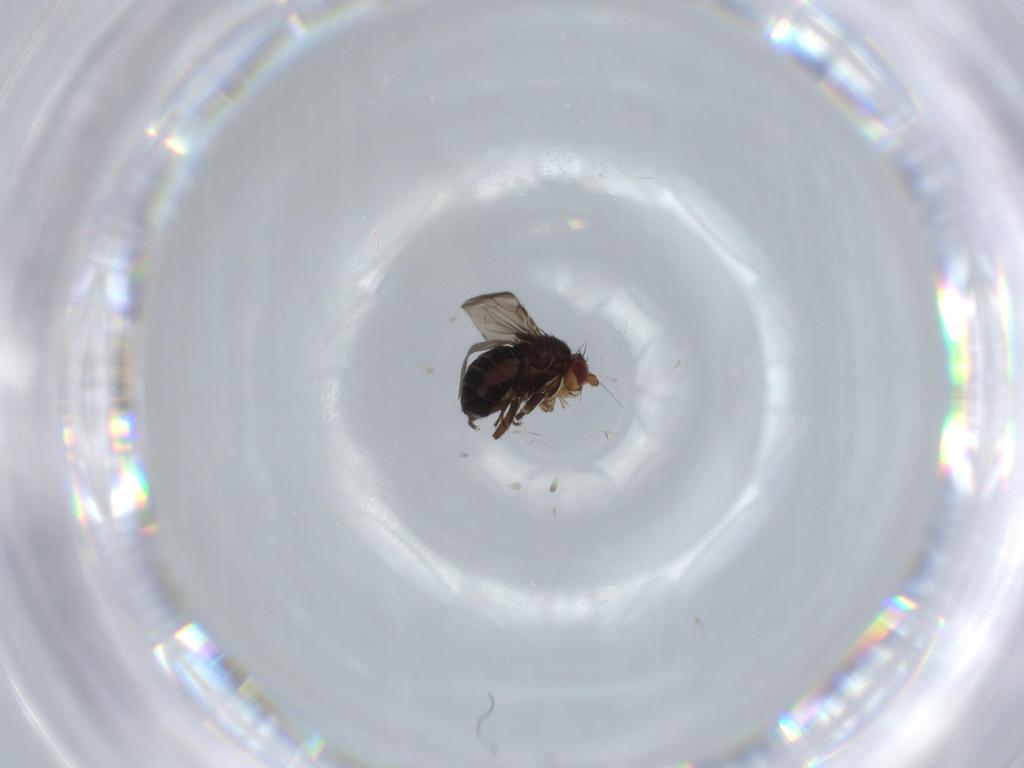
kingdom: Animalia
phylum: Arthropoda
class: Insecta
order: Diptera
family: Sphaeroceridae
